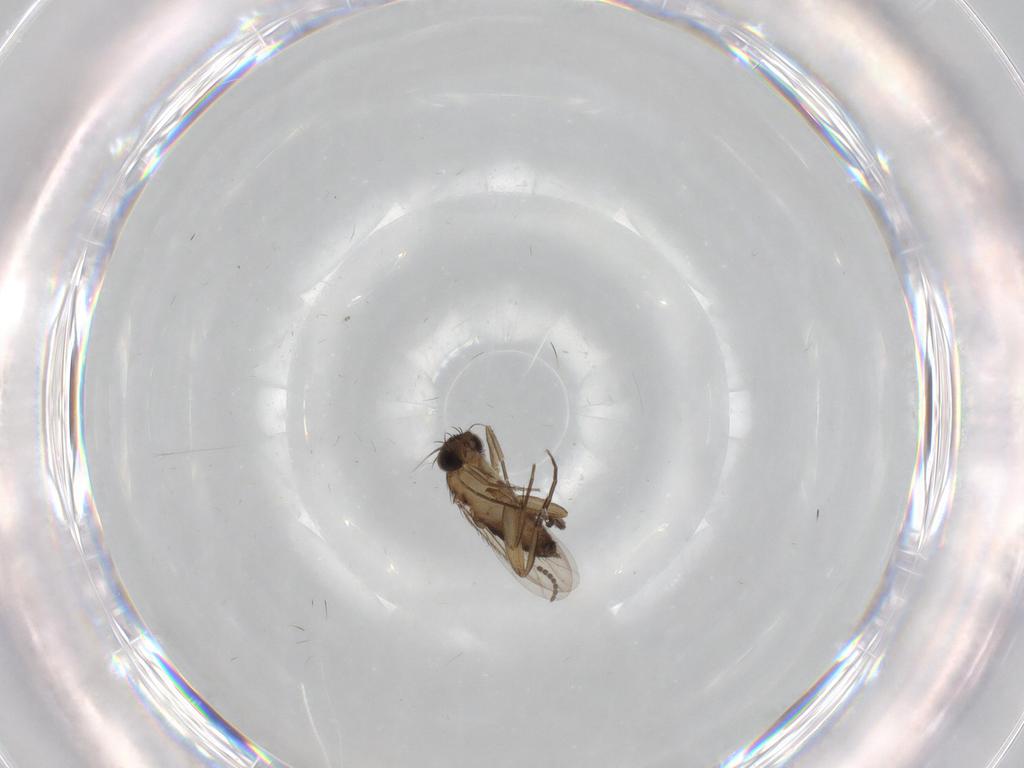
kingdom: Animalia
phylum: Arthropoda
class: Insecta
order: Diptera
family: Phoridae
